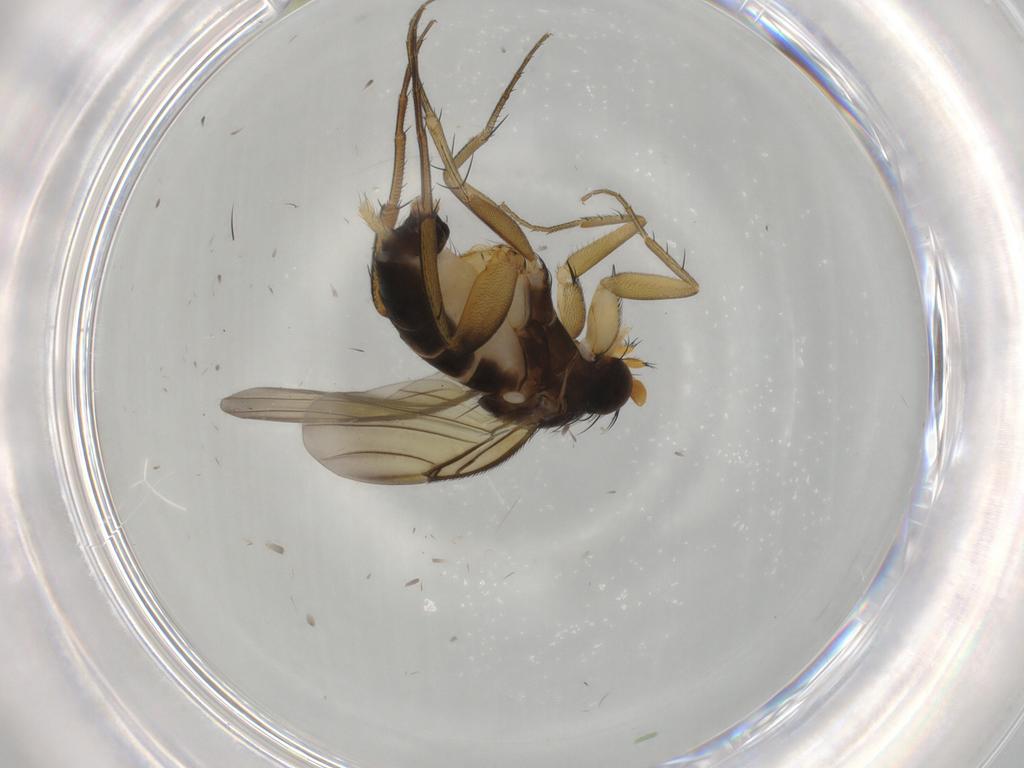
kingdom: Animalia
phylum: Arthropoda
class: Insecta
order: Diptera
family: Phoridae
